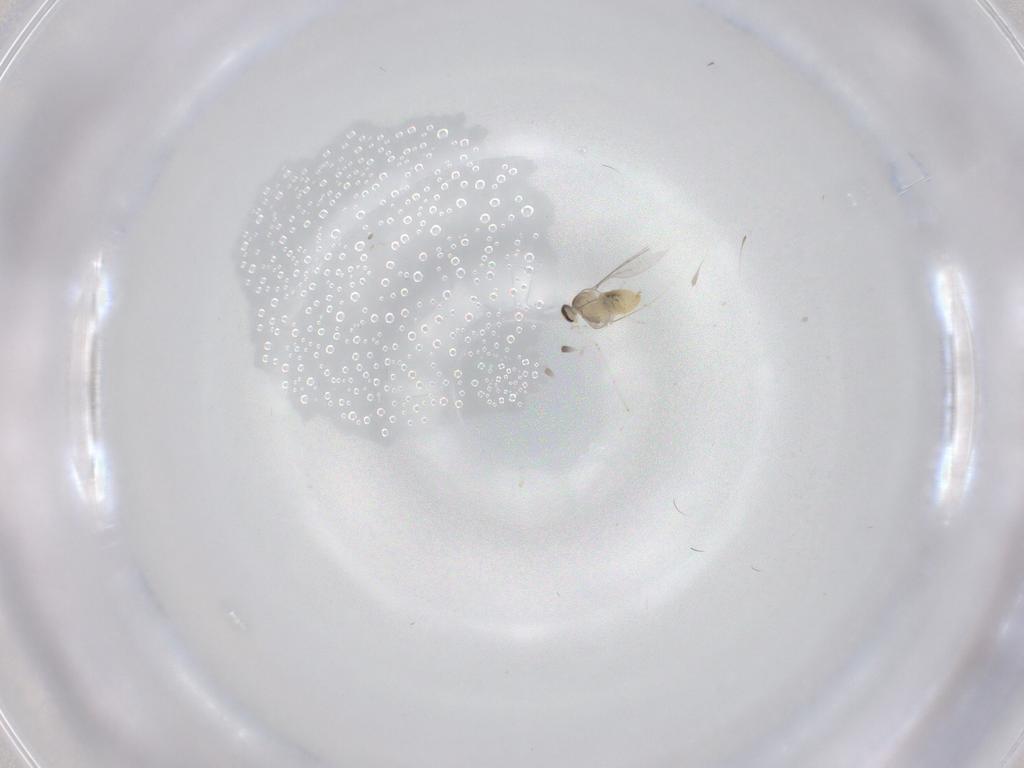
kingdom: Animalia
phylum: Arthropoda
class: Insecta
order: Diptera
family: Cecidomyiidae
